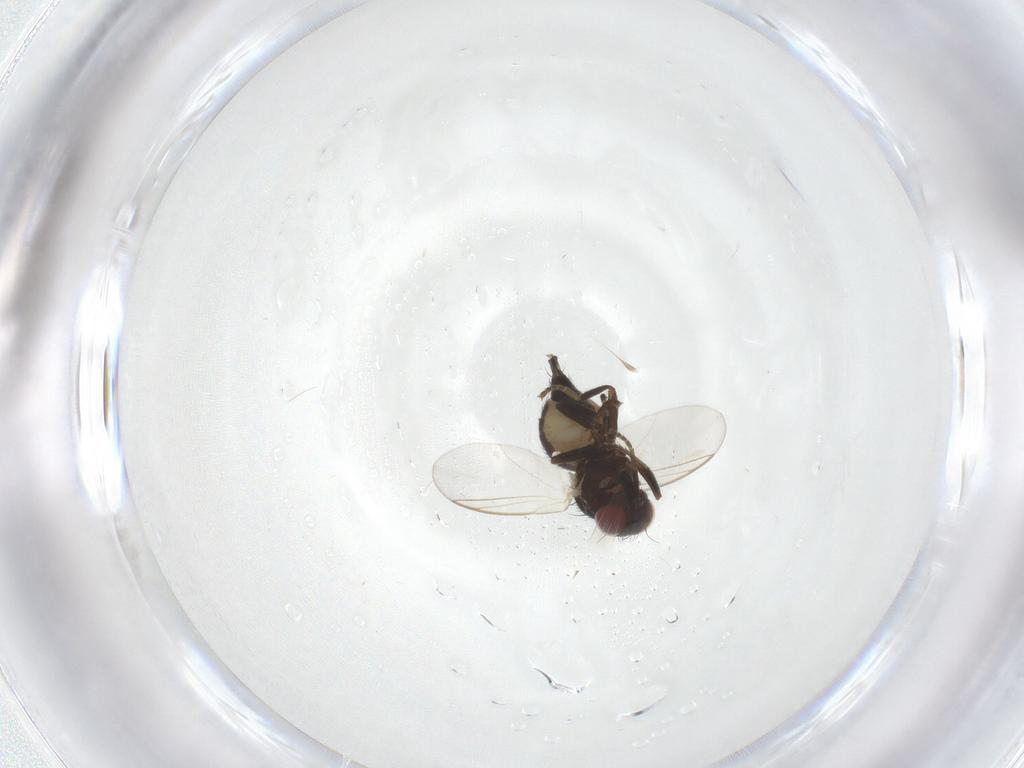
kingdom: Animalia
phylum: Arthropoda
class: Insecta
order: Diptera
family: Agromyzidae
